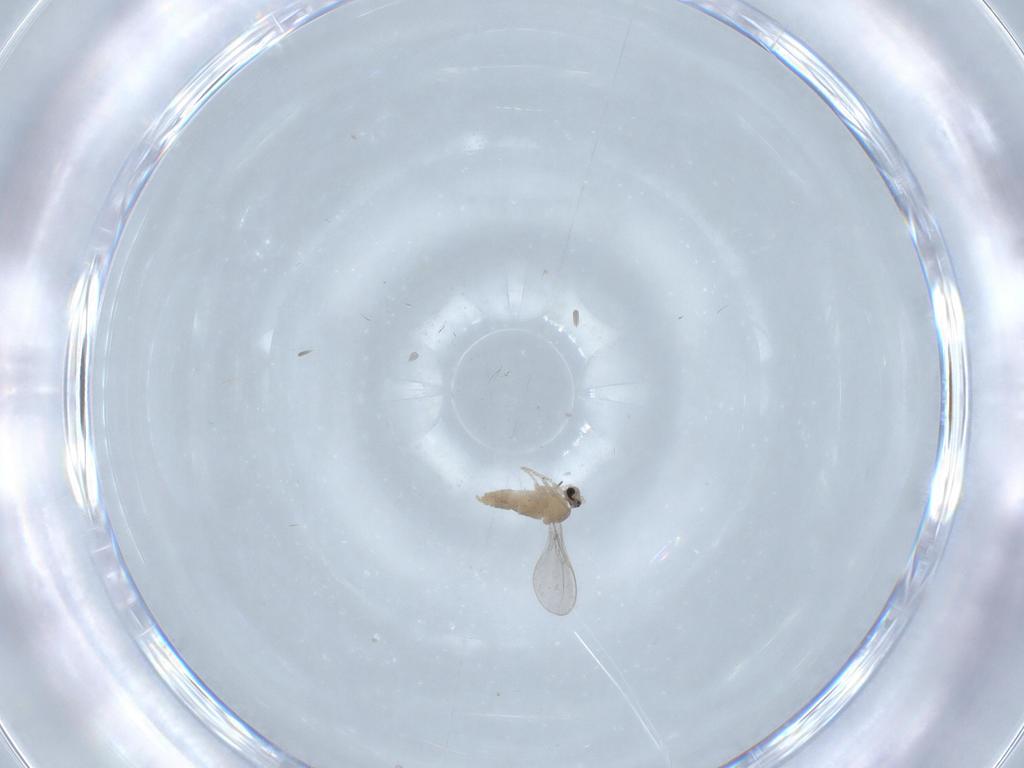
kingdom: Animalia
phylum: Arthropoda
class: Insecta
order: Diptera
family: Cecidomyiidae
